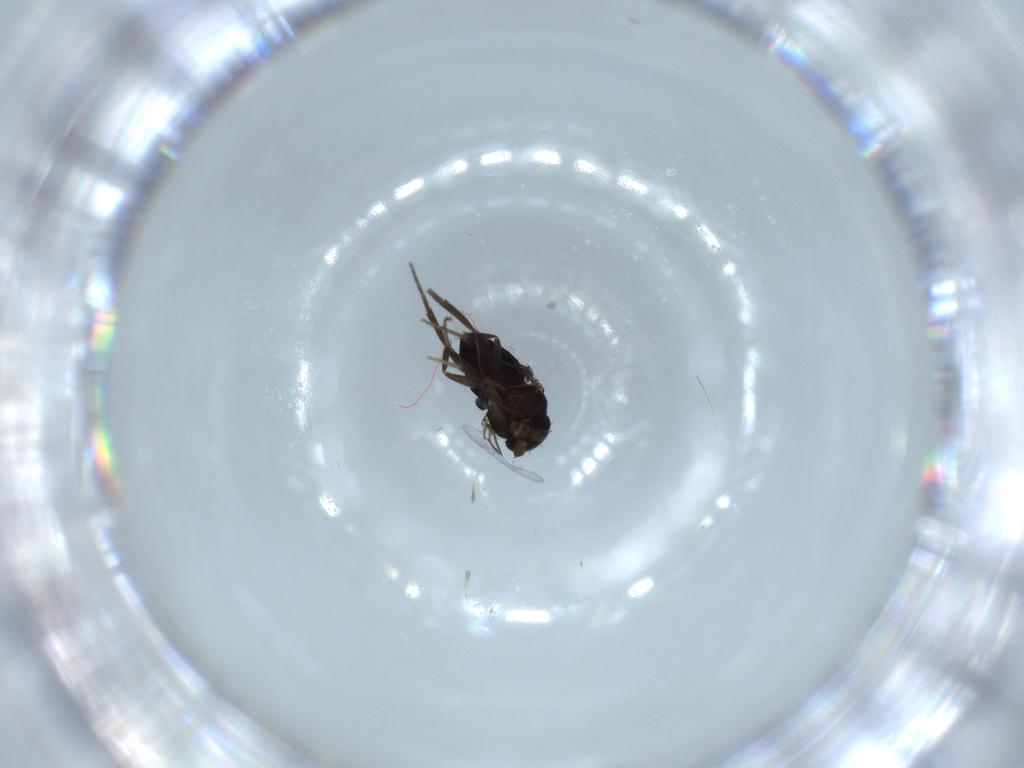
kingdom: Animalia
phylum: Arthropoda
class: Insecta
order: Diptera
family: Phoridae
